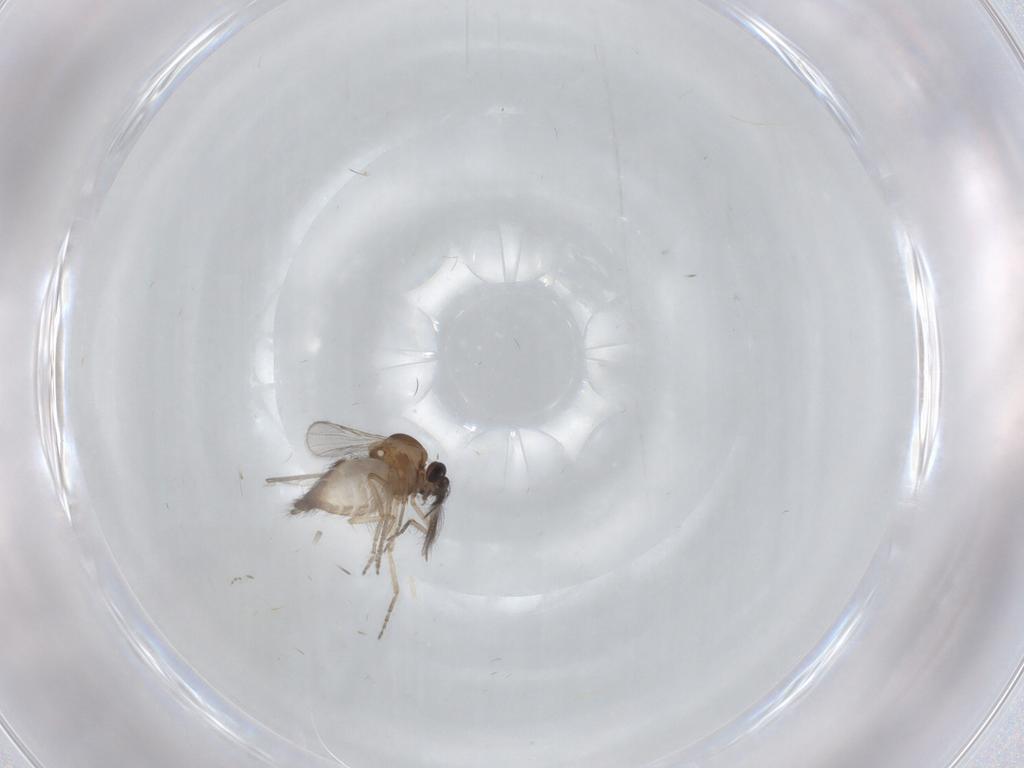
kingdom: Animalia
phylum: Arthropoda
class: Insecta
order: Diptera
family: Ceratopogonidae
